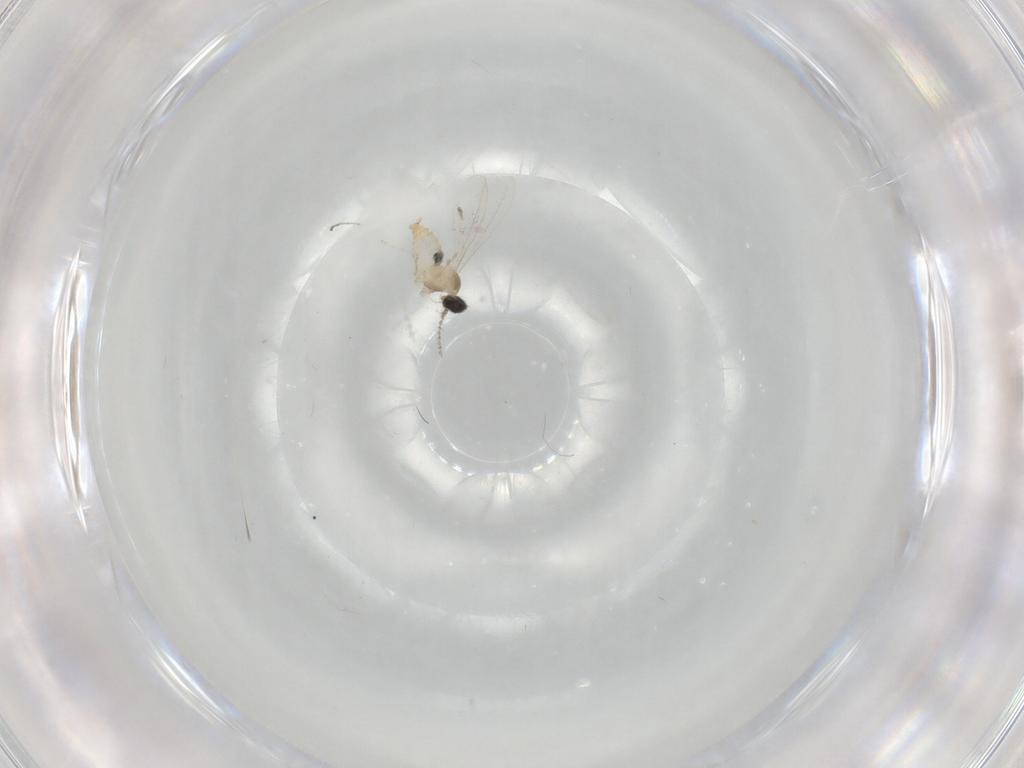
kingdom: Animalia
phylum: Arthropoda
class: Insecta
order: Diptera
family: Cecidomyiidae
